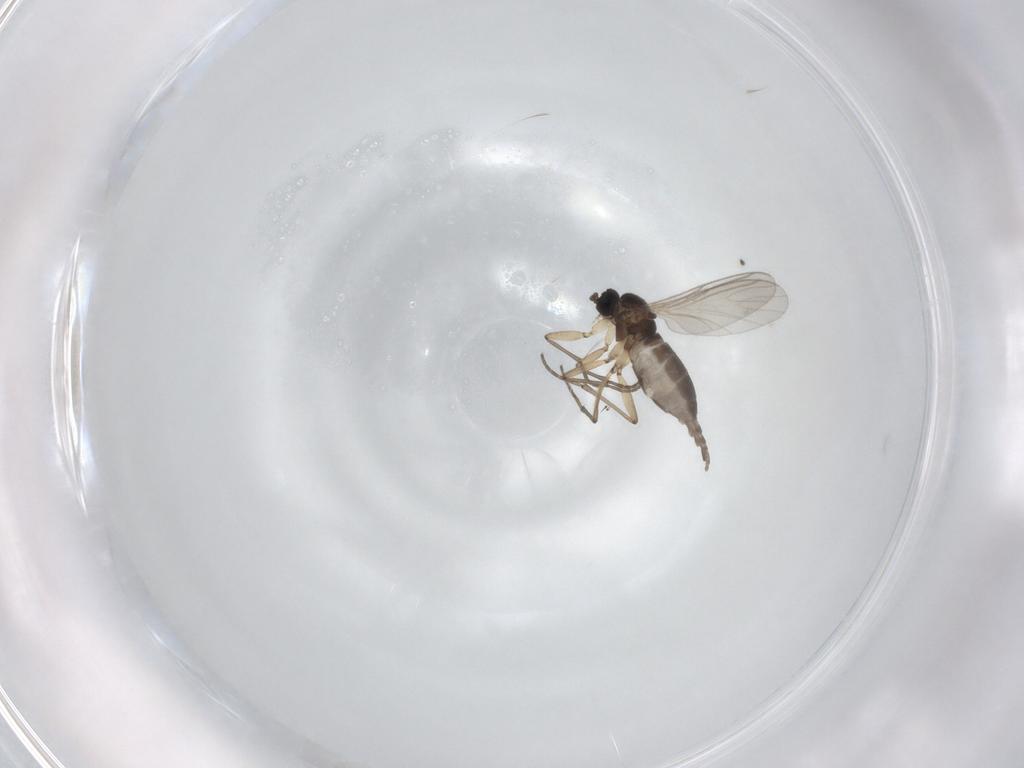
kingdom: Animalia
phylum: Arthropoda
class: Insecta
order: Diptera
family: Sciaridae
